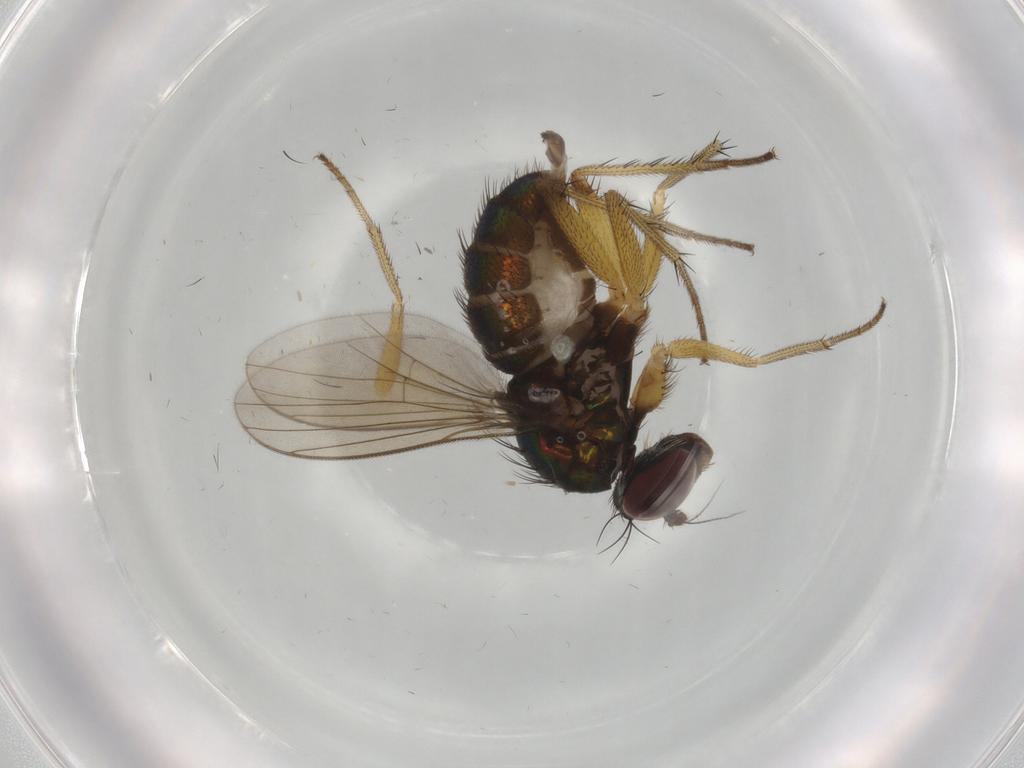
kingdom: Animalia
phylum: Arthropoda
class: Insecta
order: Diptera
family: Dolichopodidae
